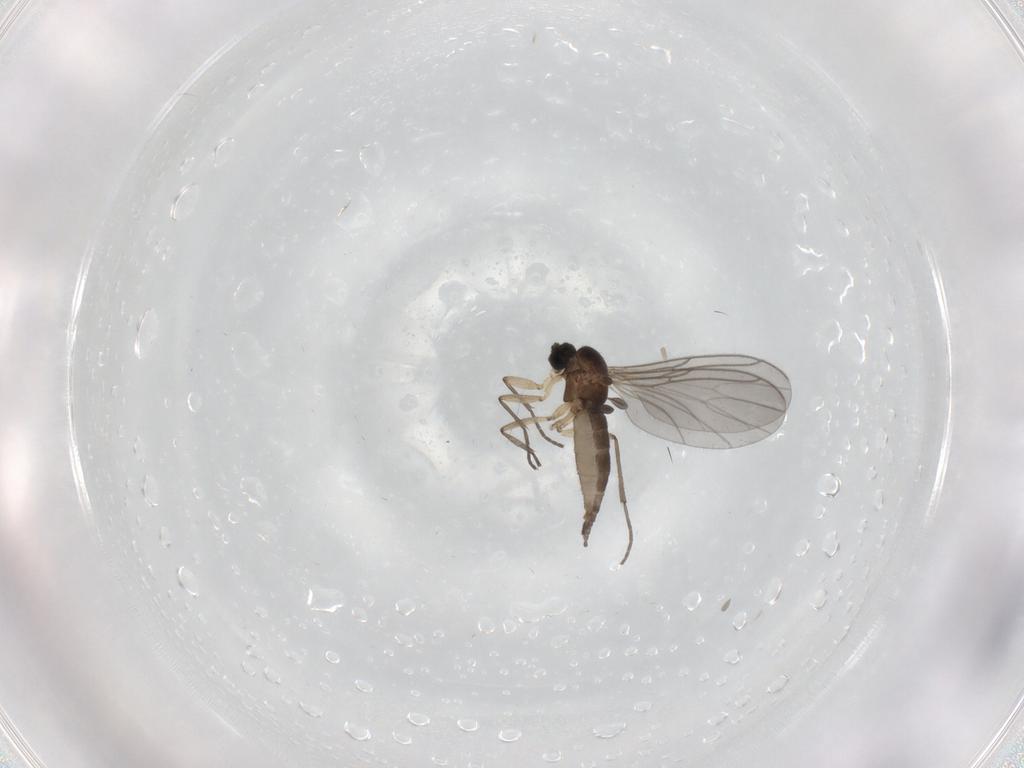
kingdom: Animalia
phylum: Arthropoda
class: Insecta
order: Diptera
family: Sciaridae
